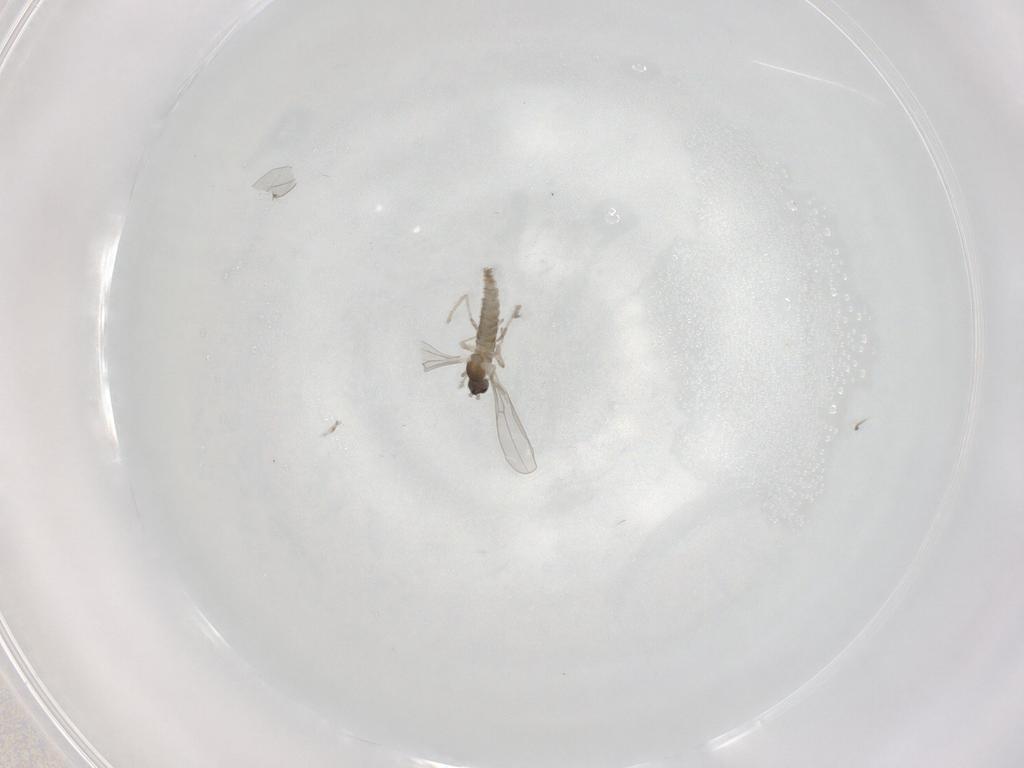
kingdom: Animalia
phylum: Arthropoda
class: Insecta
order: Diptera
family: Cecidomyiidae
